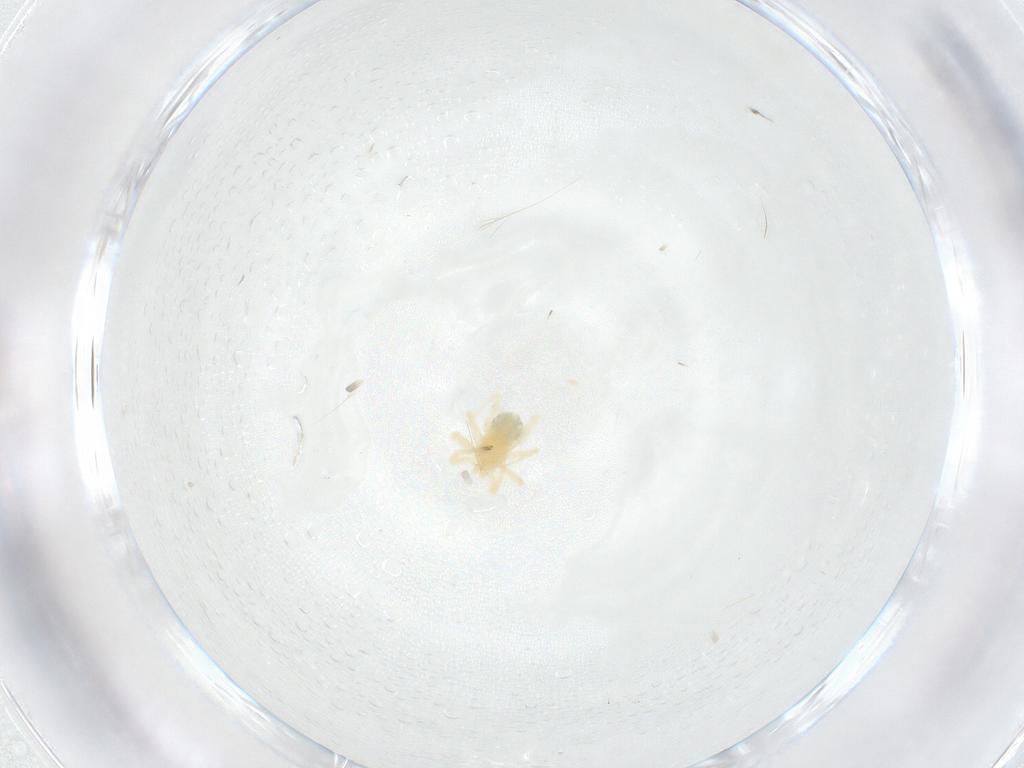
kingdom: Animalia
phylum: Arthropoda
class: Arachnida
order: Trombidiformes
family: Anystidae
